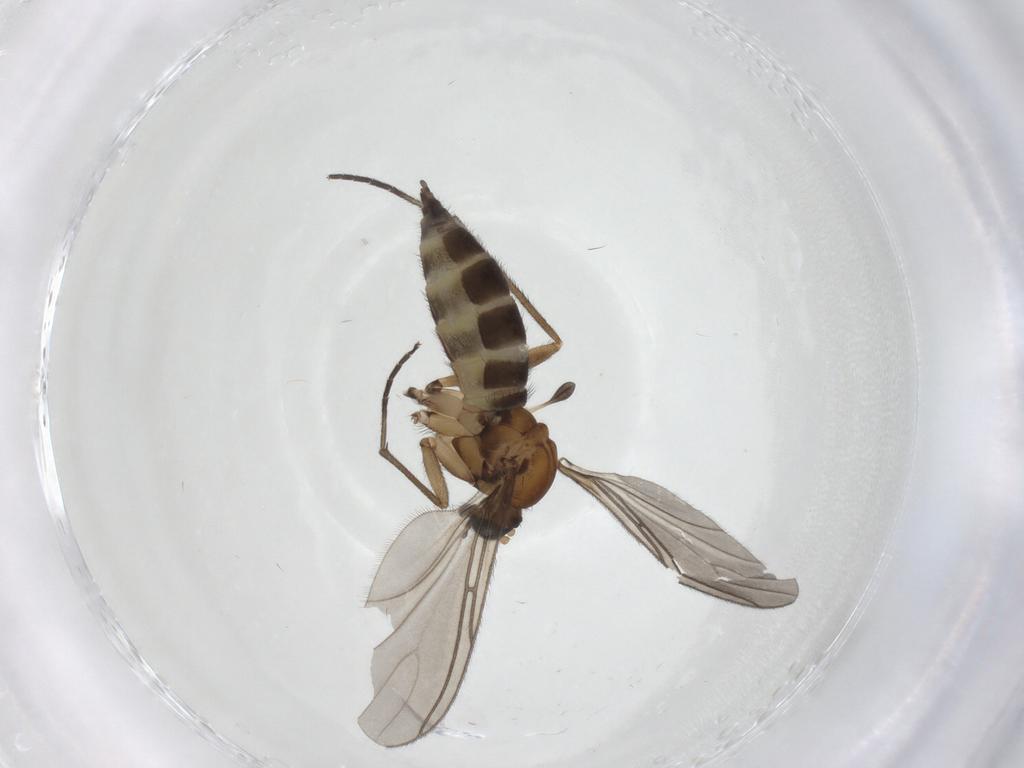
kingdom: Animalia
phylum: Arthropoda
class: Insecta
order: Diptera
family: Sciaridae
